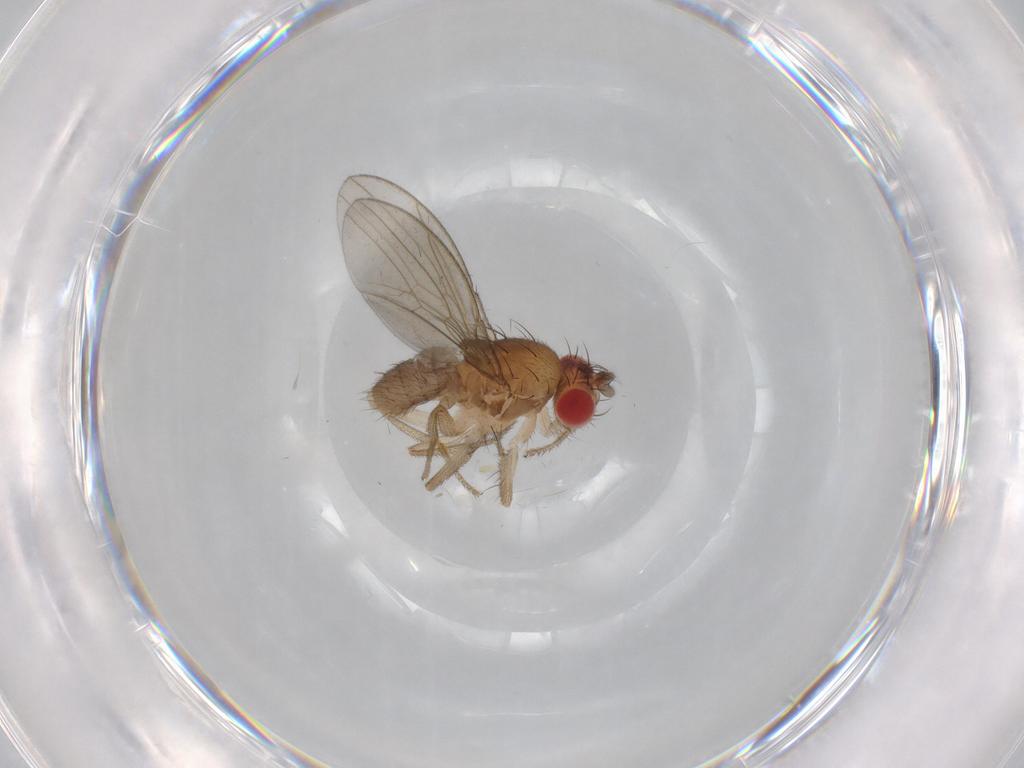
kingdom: Animalia
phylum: Arthropoda
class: Insecta
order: Diptera
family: Drosophilidae
